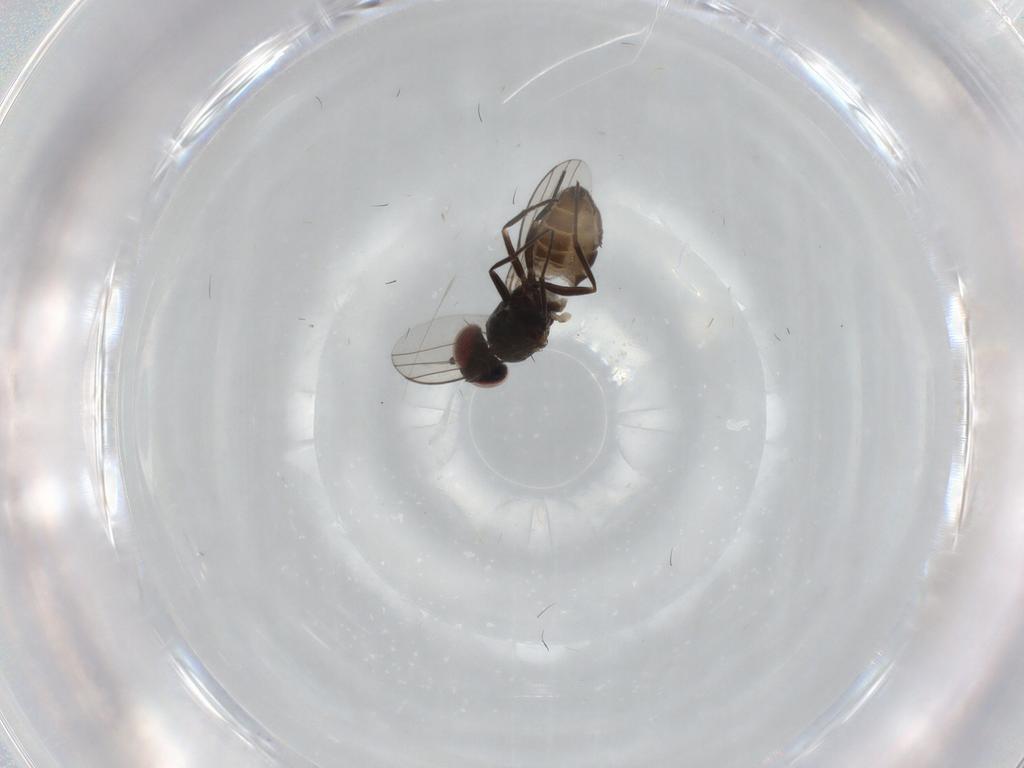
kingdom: Animalia
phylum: Arthropoda
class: Insecta
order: Diptera
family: Dolichopodidae
